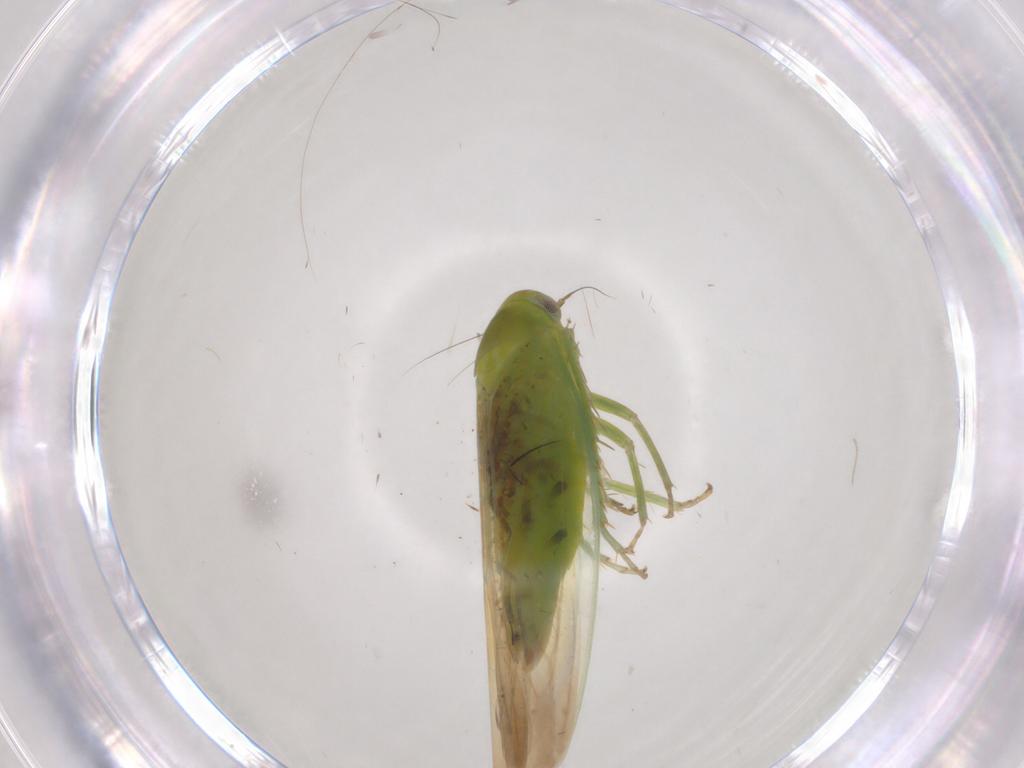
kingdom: Animalia
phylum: Arthropoda
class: Insecta
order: Hemiptera
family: Cicadellidae
